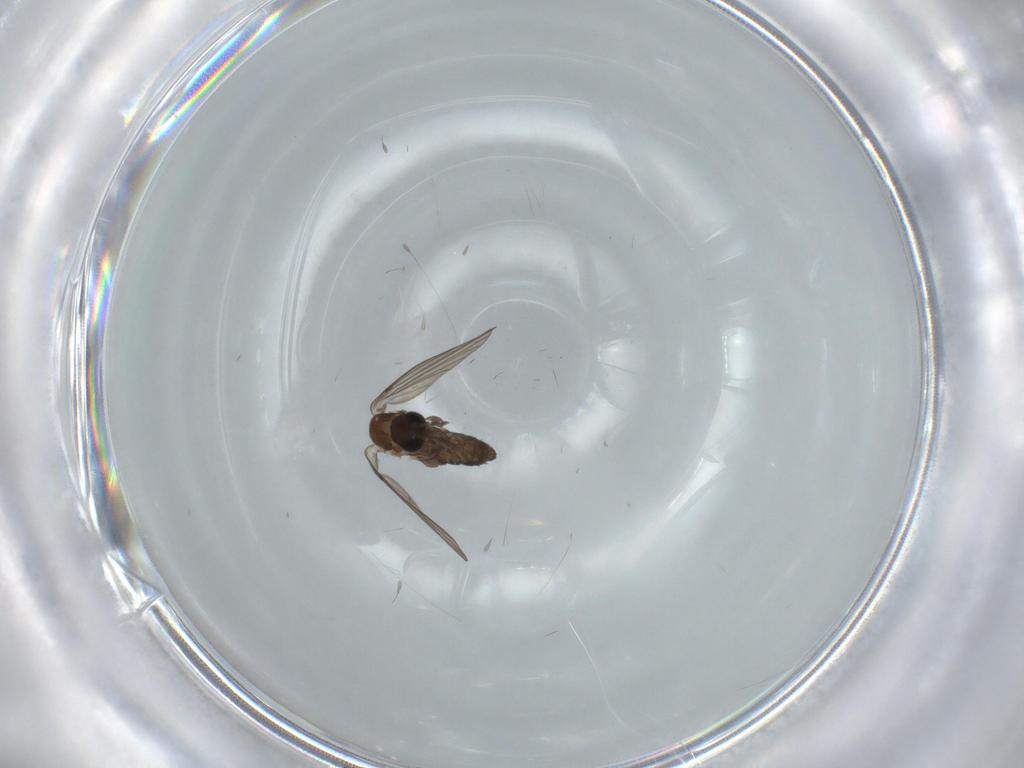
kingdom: Animalia
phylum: Arthropoda
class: Insecta
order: Diptera
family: Psychodidae
